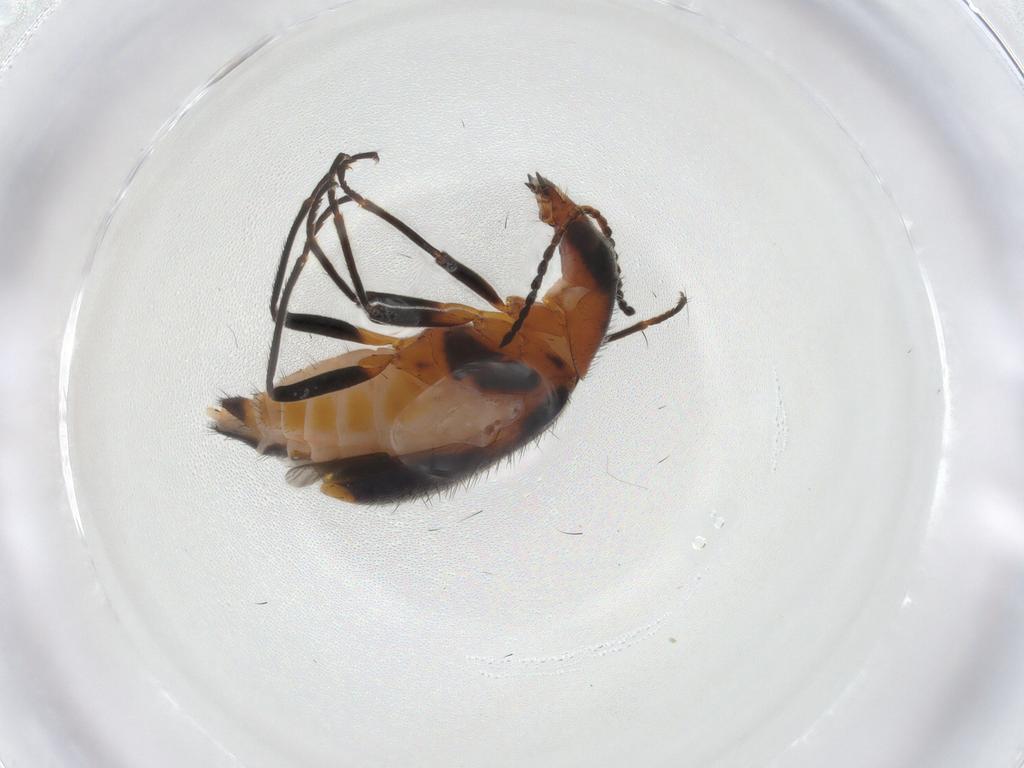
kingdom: Animalia
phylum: Arthropoda
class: Insecta
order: Coleoptera
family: Melyridae
